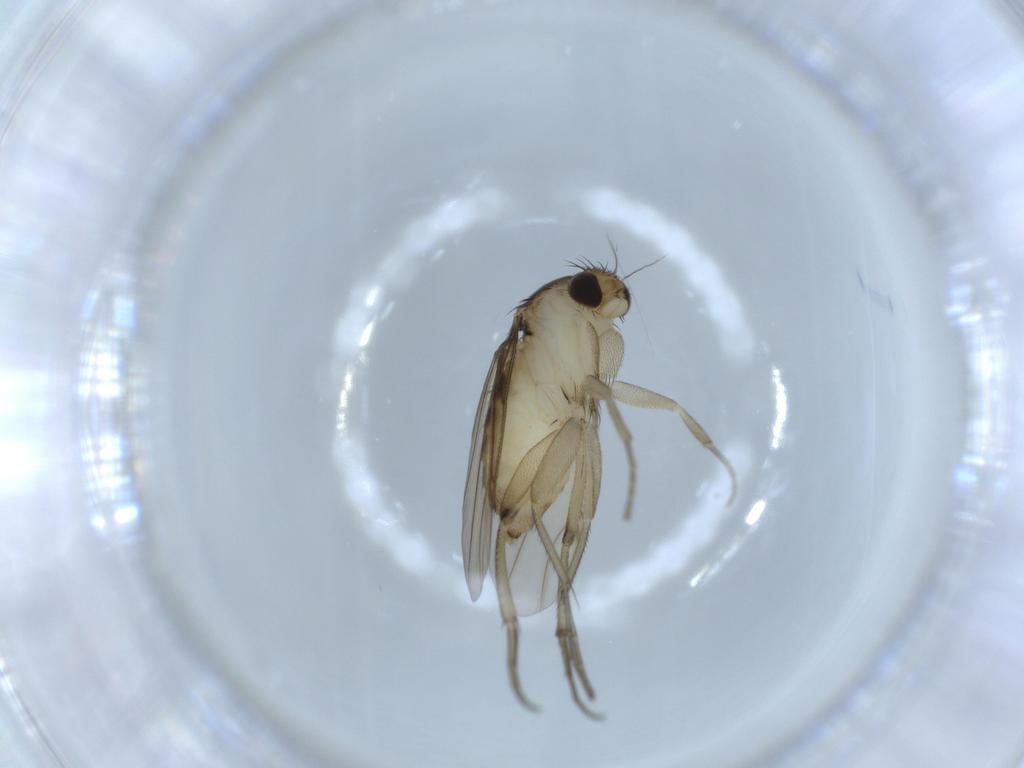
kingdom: Animalia
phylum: Arthropoda
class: Insecta
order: Diptera
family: Chironomidae
